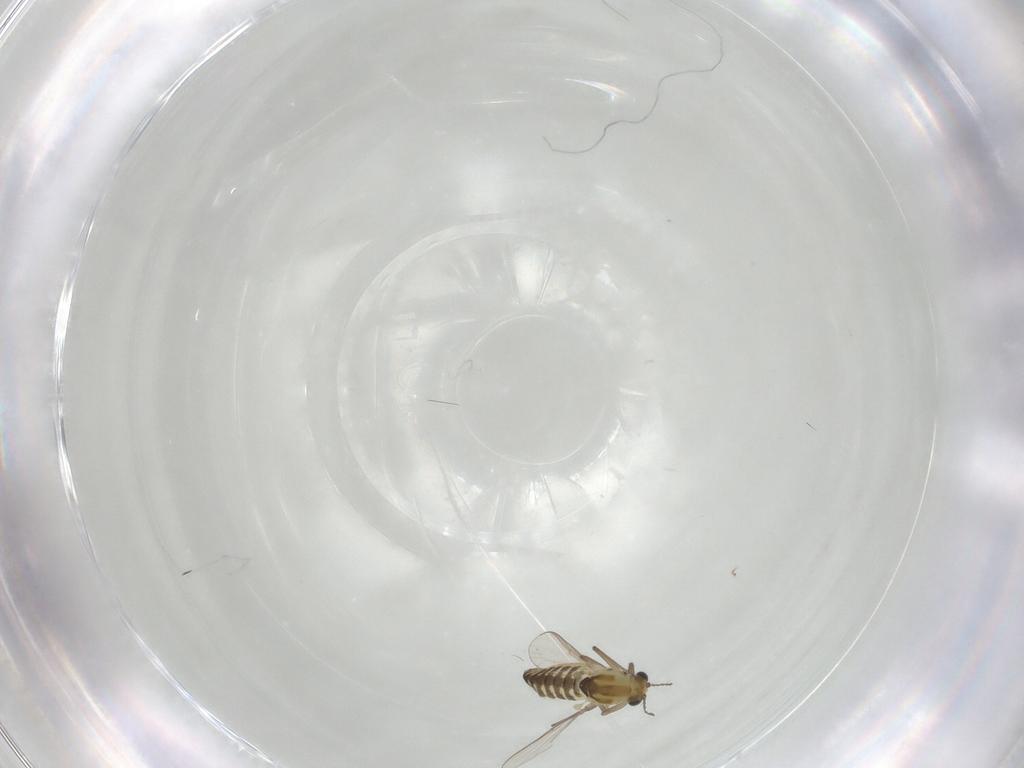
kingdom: Animalia
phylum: Arthropoda
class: Insecta
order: Diptera
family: Chironomidae
